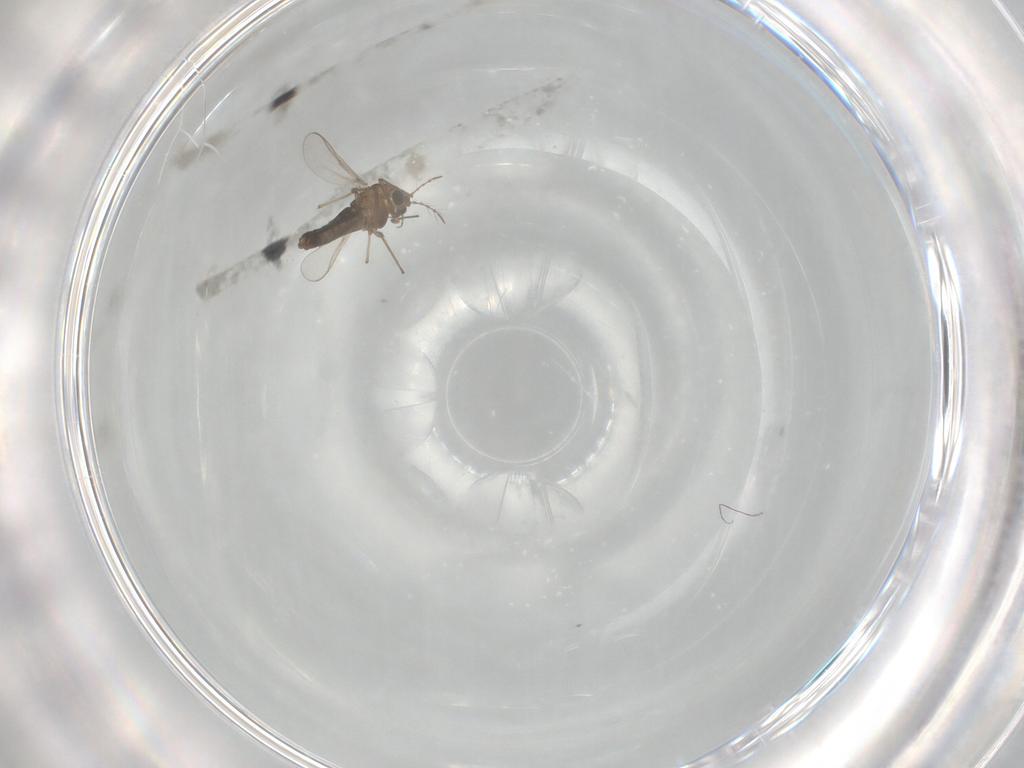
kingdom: Animalia
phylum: Arthropoda
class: Insecta
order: Diptera
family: Chironomidae
